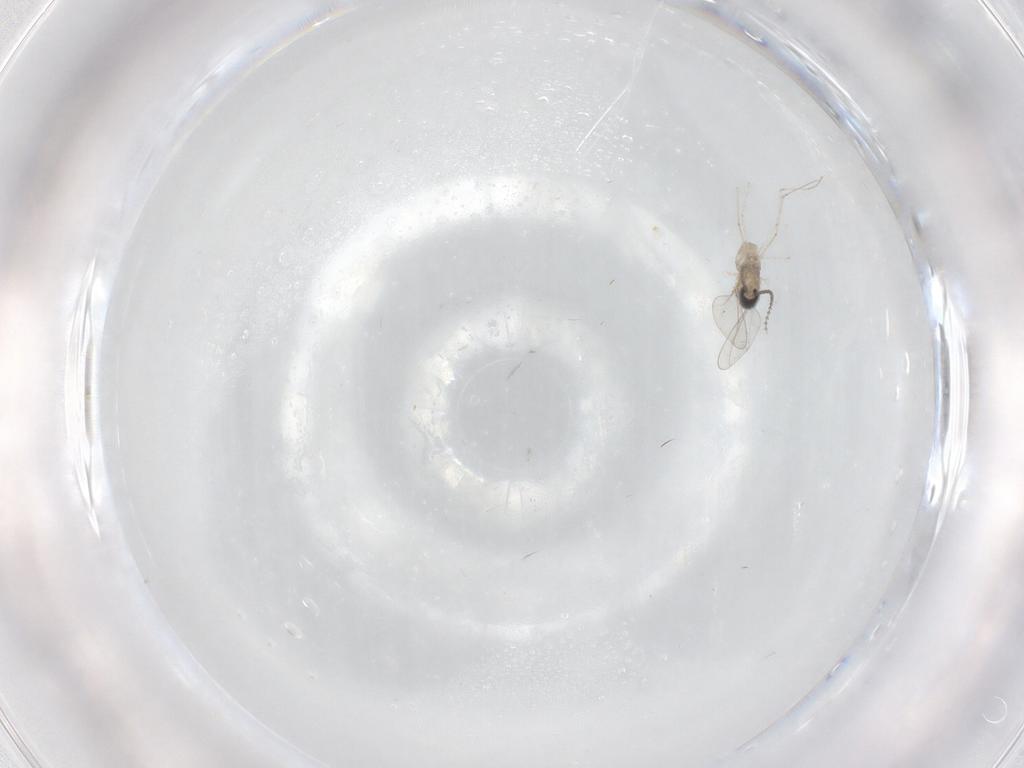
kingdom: Animalia
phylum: Arthropoda
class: Insecta
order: Diptera
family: Cecidomyiidae
